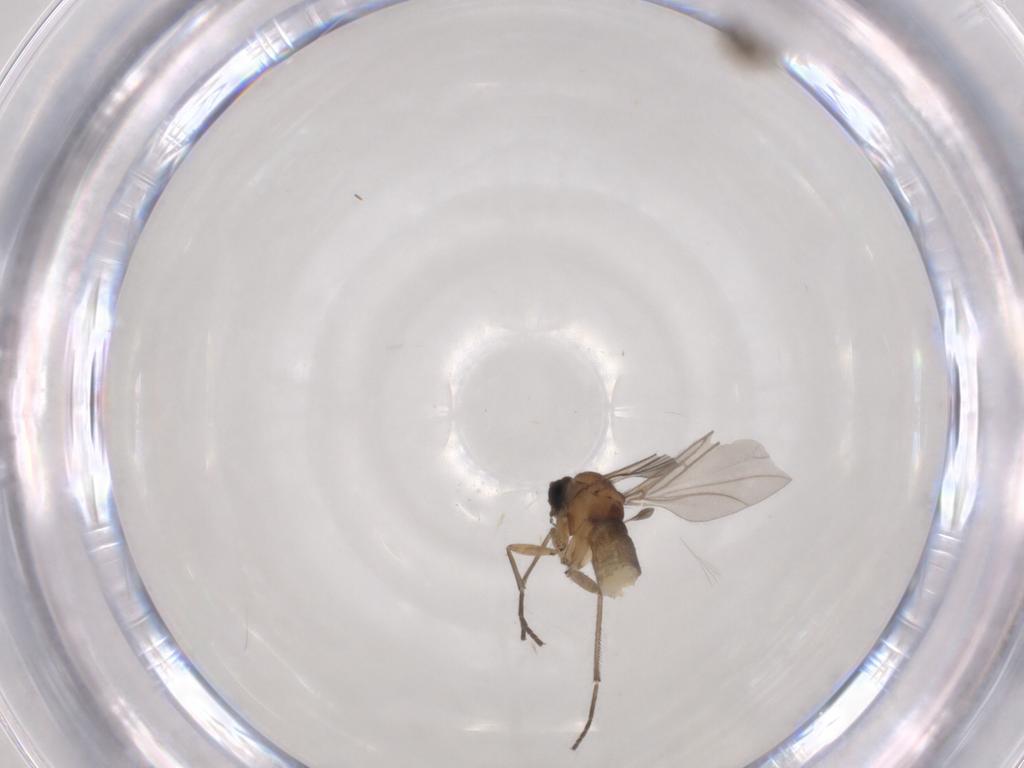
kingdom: Animalia
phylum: Arthropoda
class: Insecta
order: Diptera
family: Sciaridae
